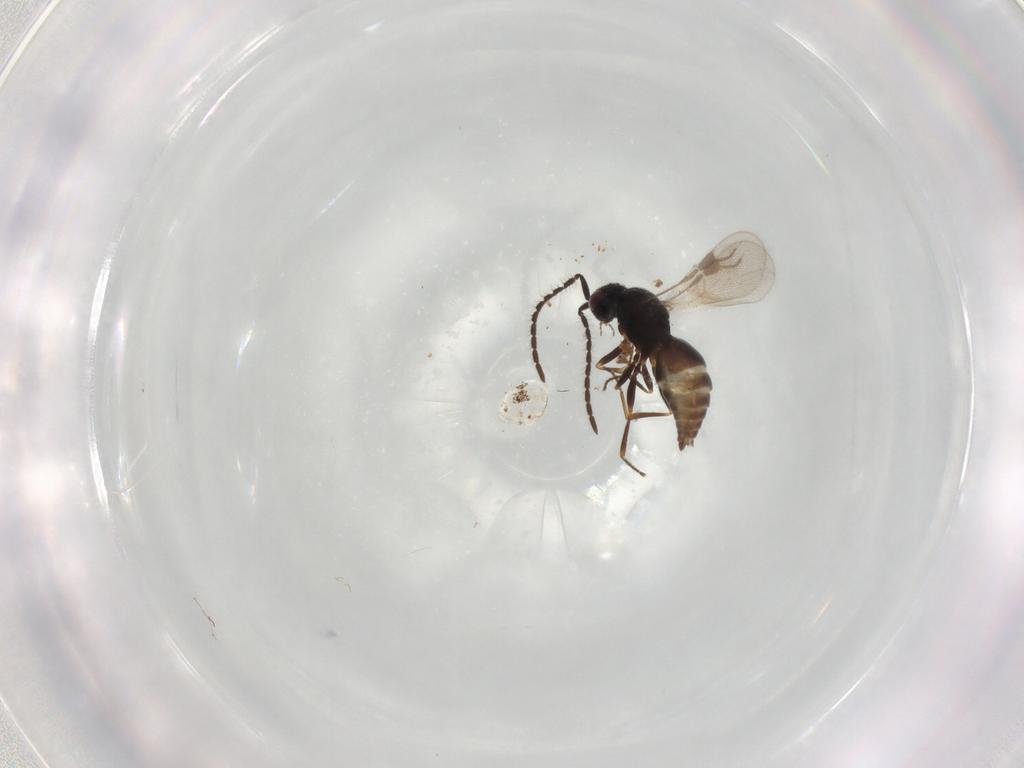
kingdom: Animalia
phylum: Arthropoda
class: Insecta
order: Hymenoptera
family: Megaspilidae
